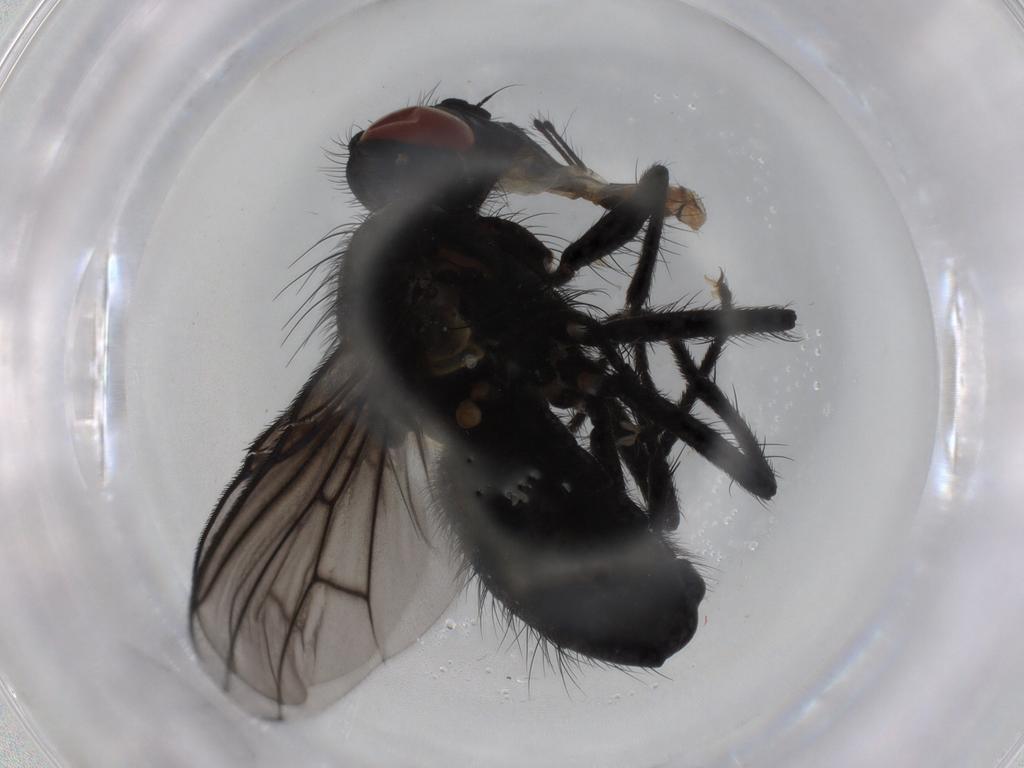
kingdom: Animalia
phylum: Arthropoda
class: Insecta
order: Diptera
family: Muscidae
